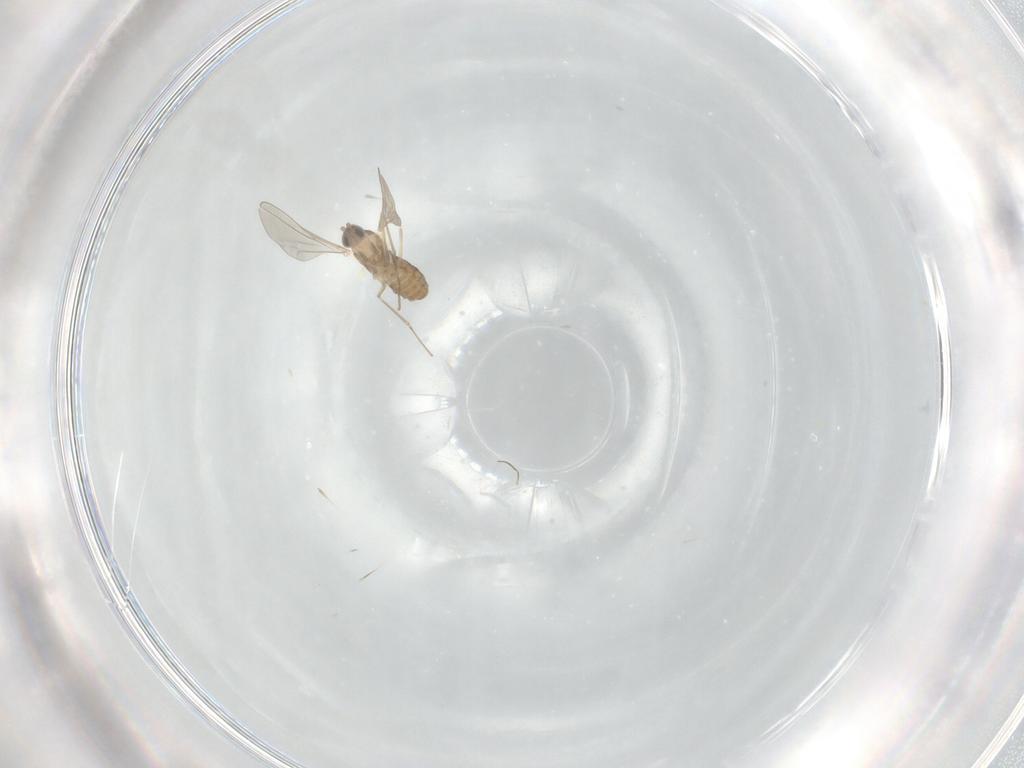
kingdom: Animalia
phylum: Arthropoda
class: Insecta
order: Diptera
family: Cecidomyiidae
